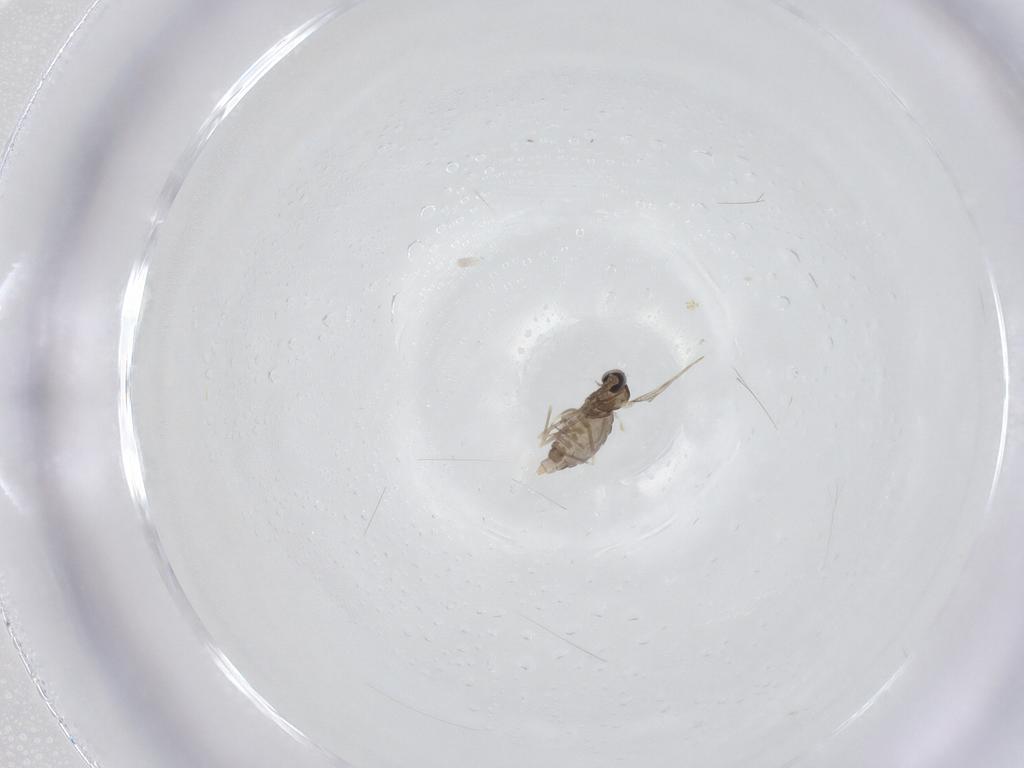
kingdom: Animalia
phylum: Arthropoda
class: Insecta
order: Diptera
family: Cecidomyiidae
